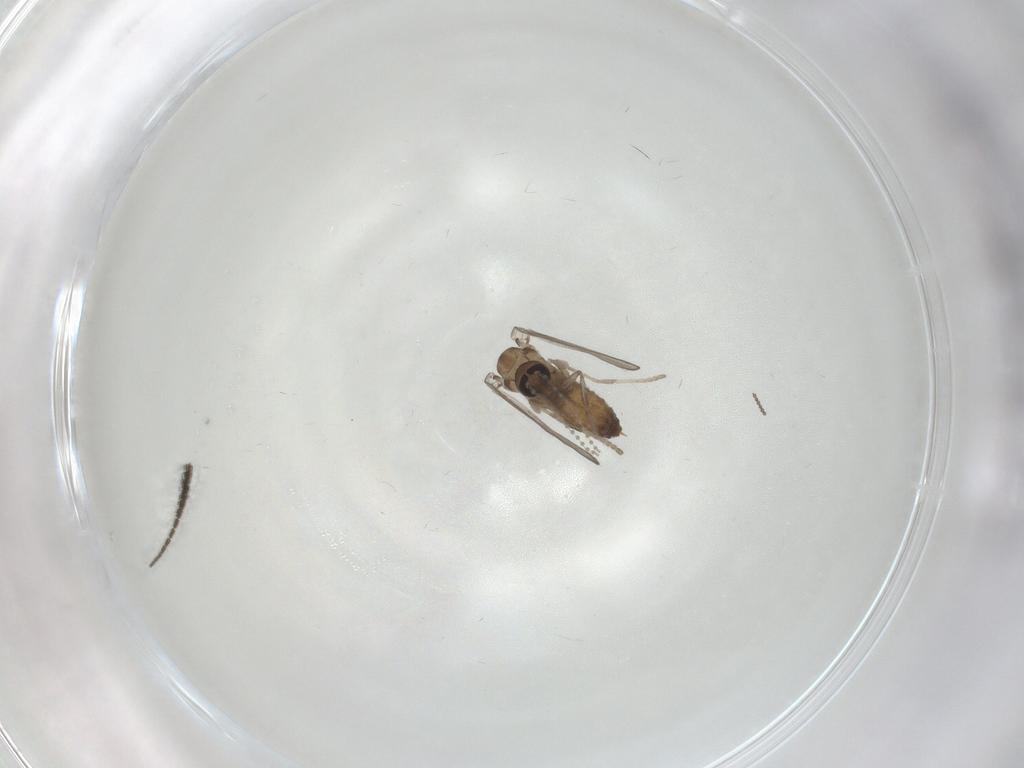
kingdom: Animalia
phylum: Arthropoda
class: Insecta
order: Diptera
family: Psychodidae
